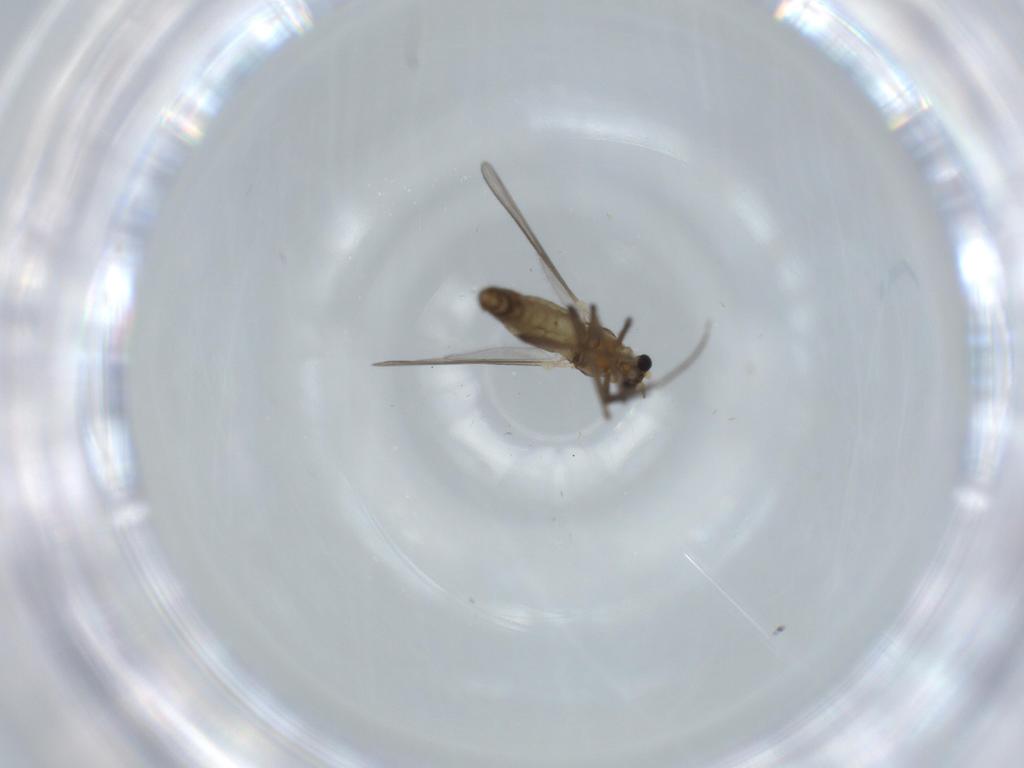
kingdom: Animalia
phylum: Arthropoda
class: Insecta
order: Diptera
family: Chironomidae
